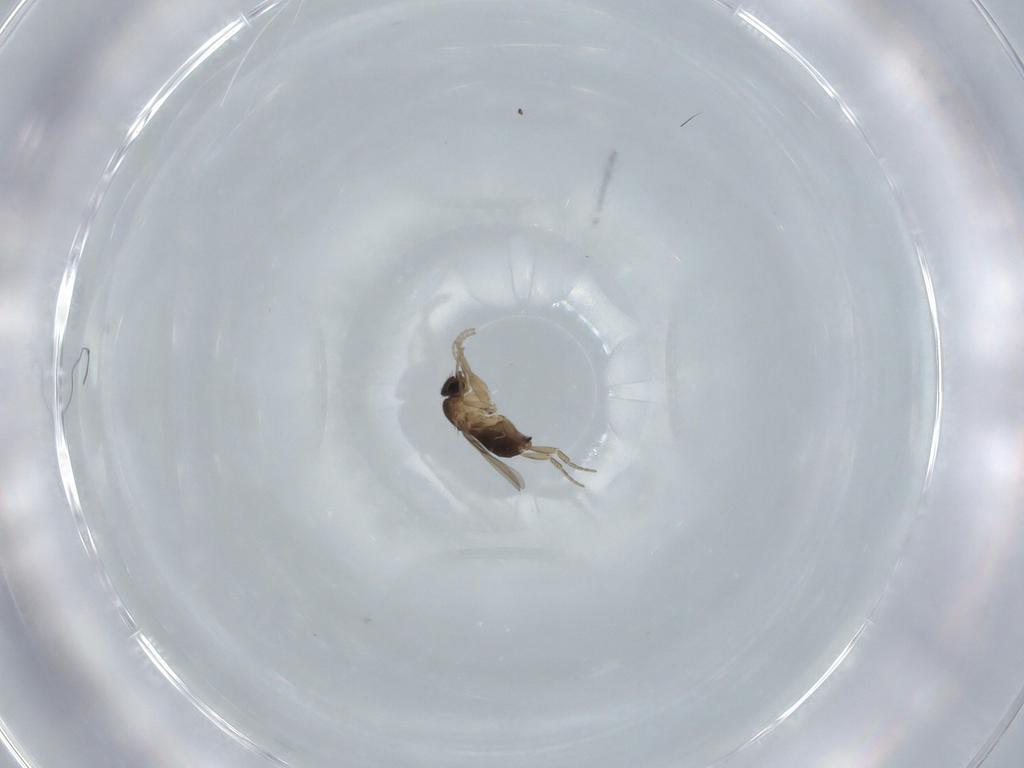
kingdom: Animalia
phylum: Arthropoda
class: Insecta
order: Diptera
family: Phoridae
